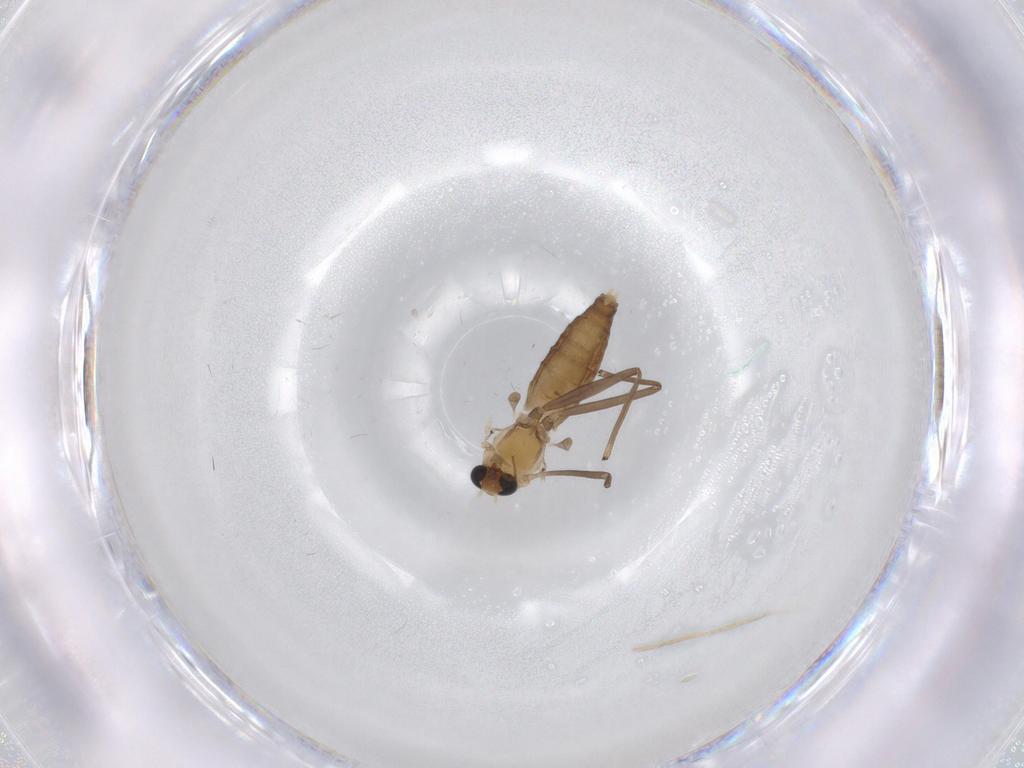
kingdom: Animalia
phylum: Arthropoda
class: Insecta
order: Diptera
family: Chironomidae
